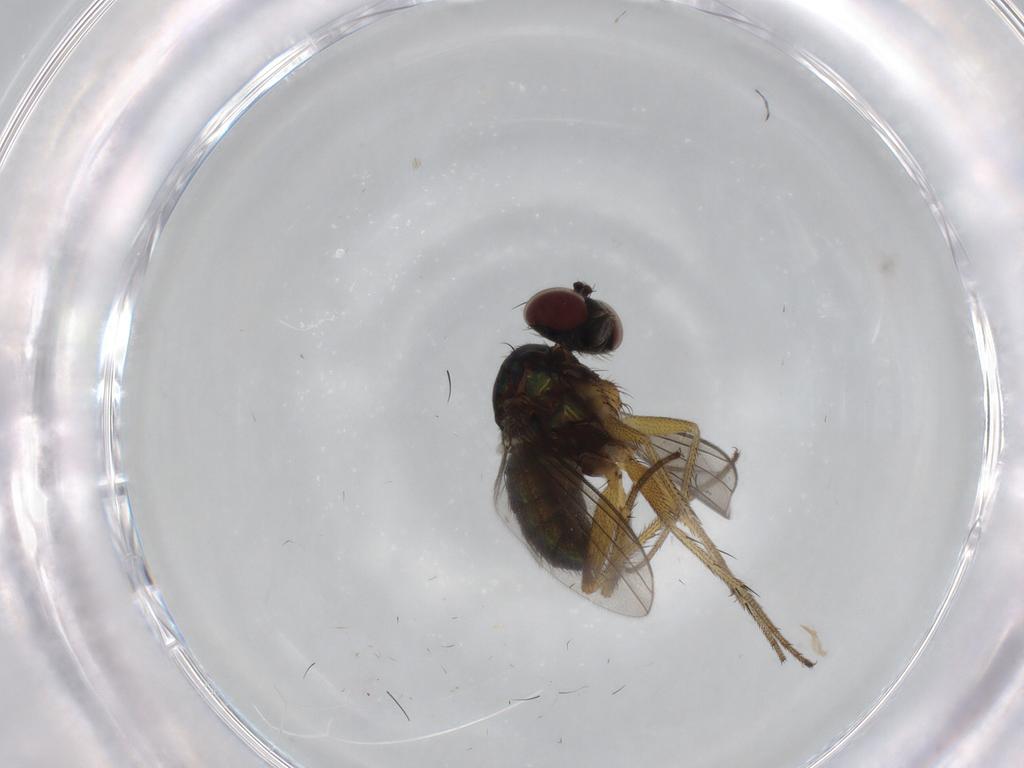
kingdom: Animalia
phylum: Arthropoda
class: Insecta
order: Diptera
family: Dolichopodidae
